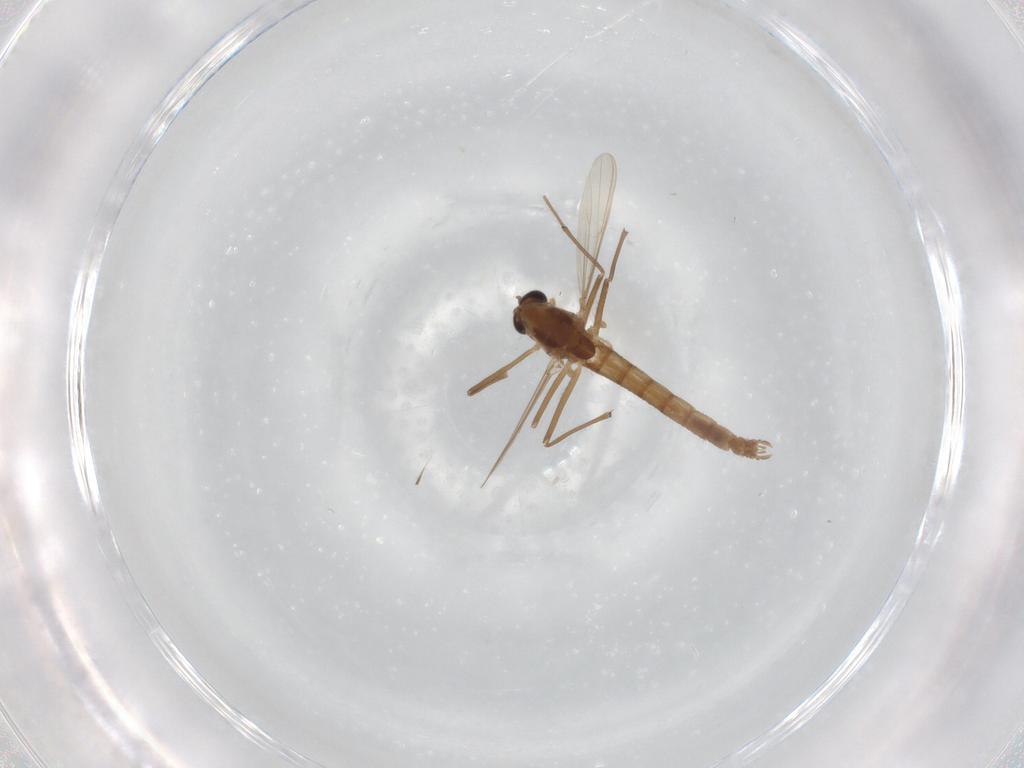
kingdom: Animalia
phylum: Arthropoda
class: Insecta
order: Diptera
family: Chironomidae
